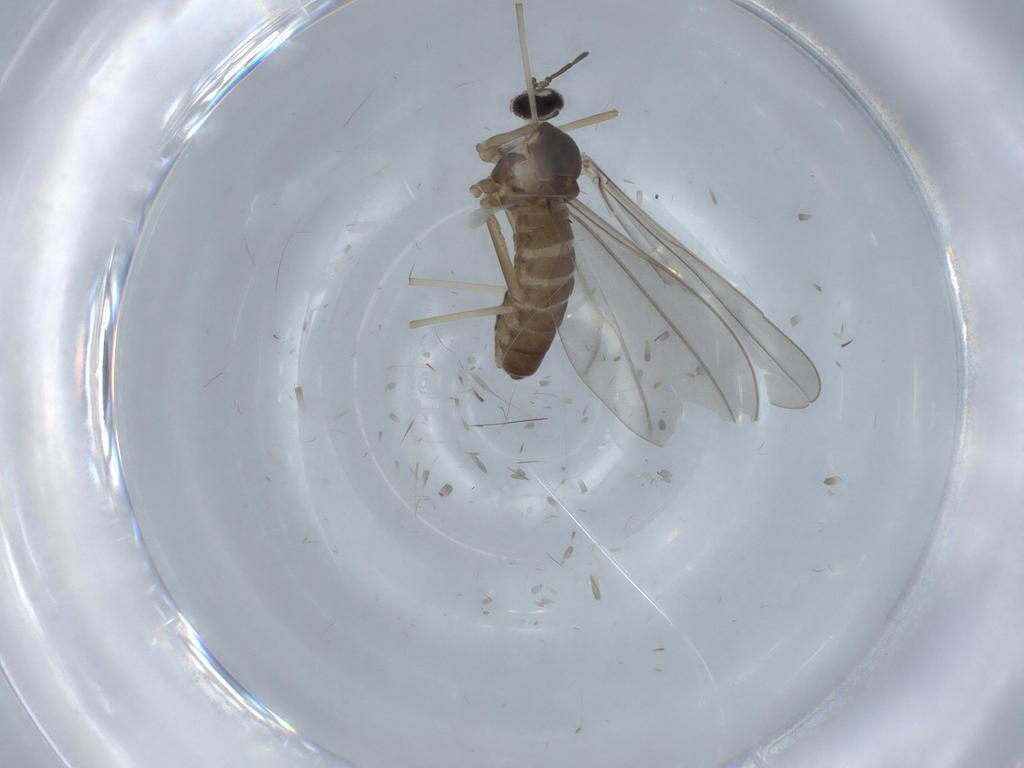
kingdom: Animalia
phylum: Arthropoda
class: Insecta
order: Diptera
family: Cecidomyiidae
